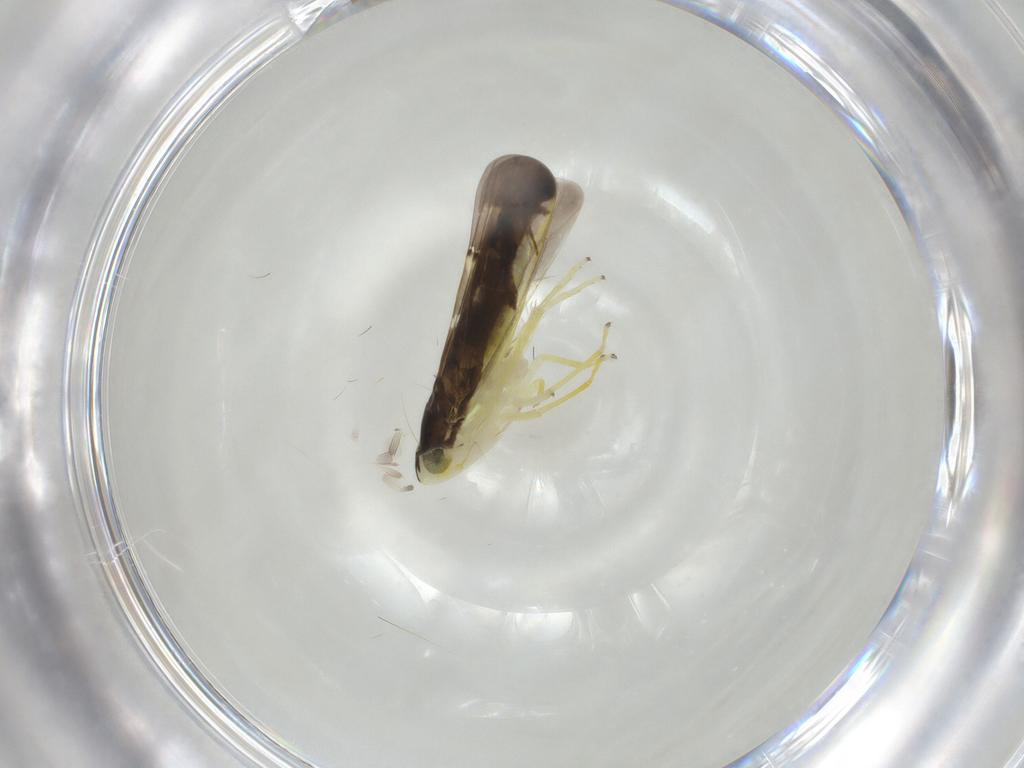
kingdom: Animalia
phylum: Arthropoda
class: Insecta
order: Hemiptera
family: Cicadellidae
